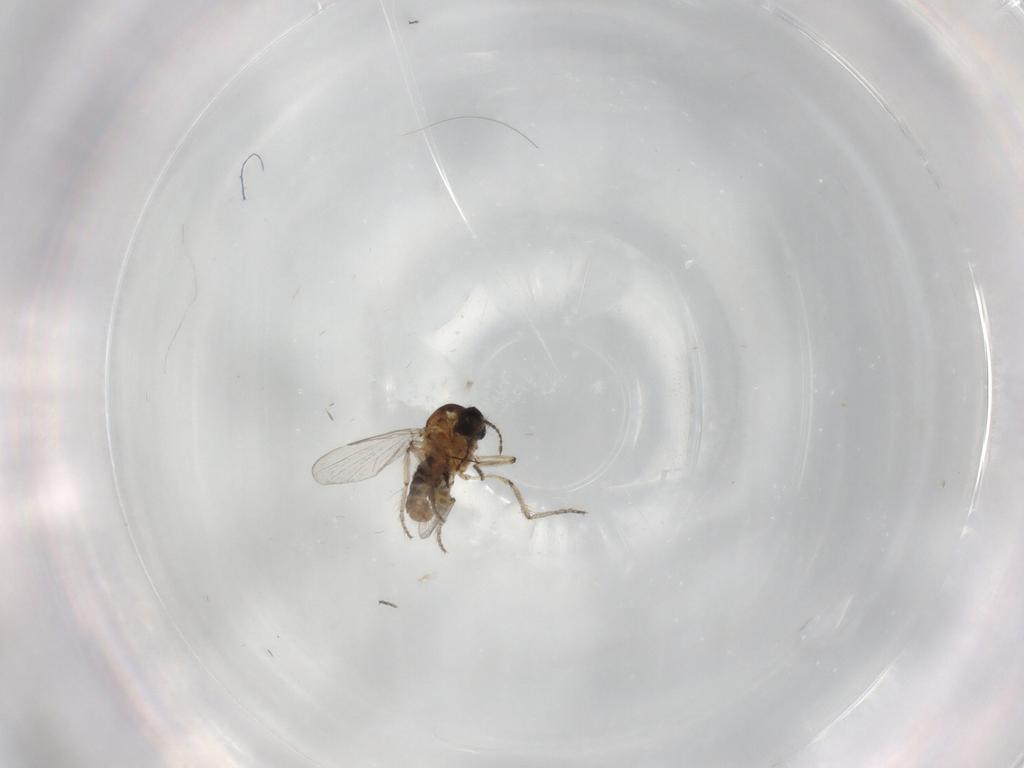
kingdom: Animalia
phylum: Arthropoda
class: Insecta
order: Diptera
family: Ceratopogonidae
